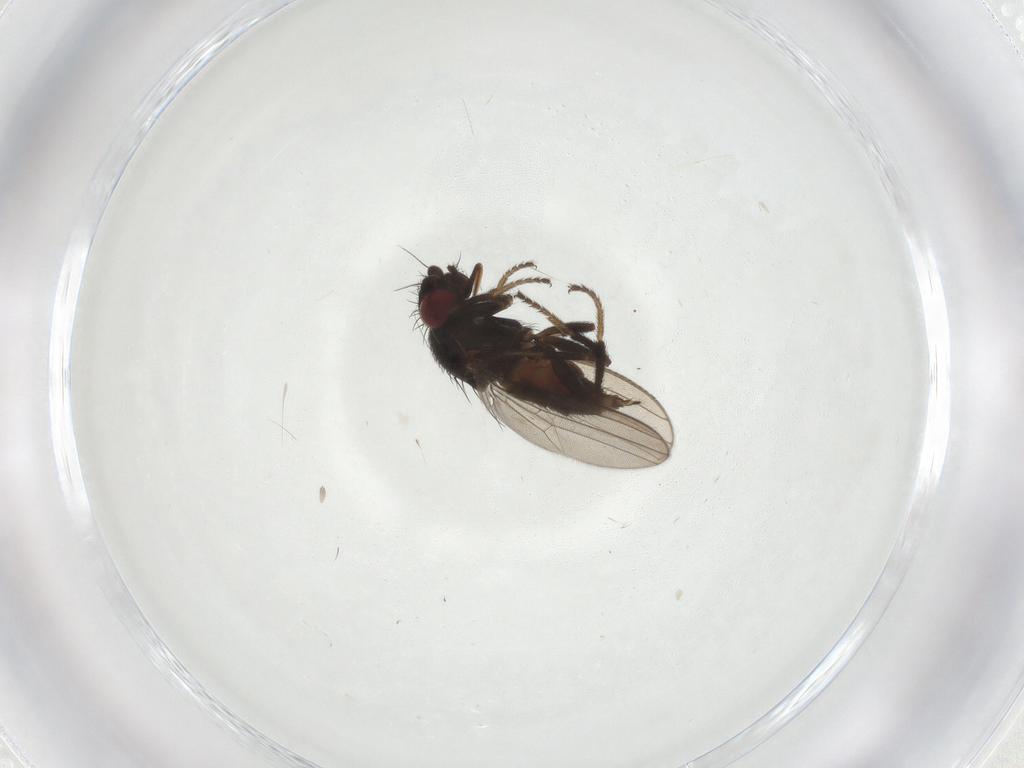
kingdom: Animalia
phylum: Arthropoda
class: Insecta
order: Diptera
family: Milichiidae
